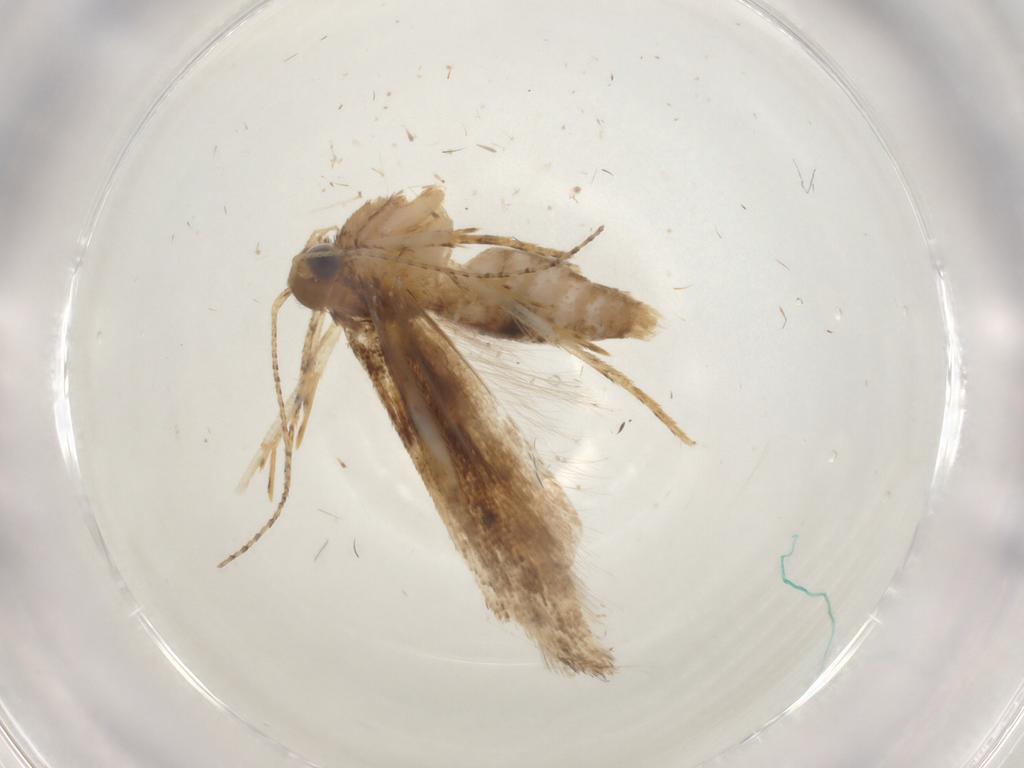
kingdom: Animalia
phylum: Arthropoda
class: Insecta
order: Lepidoptera
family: Gelechiidae
